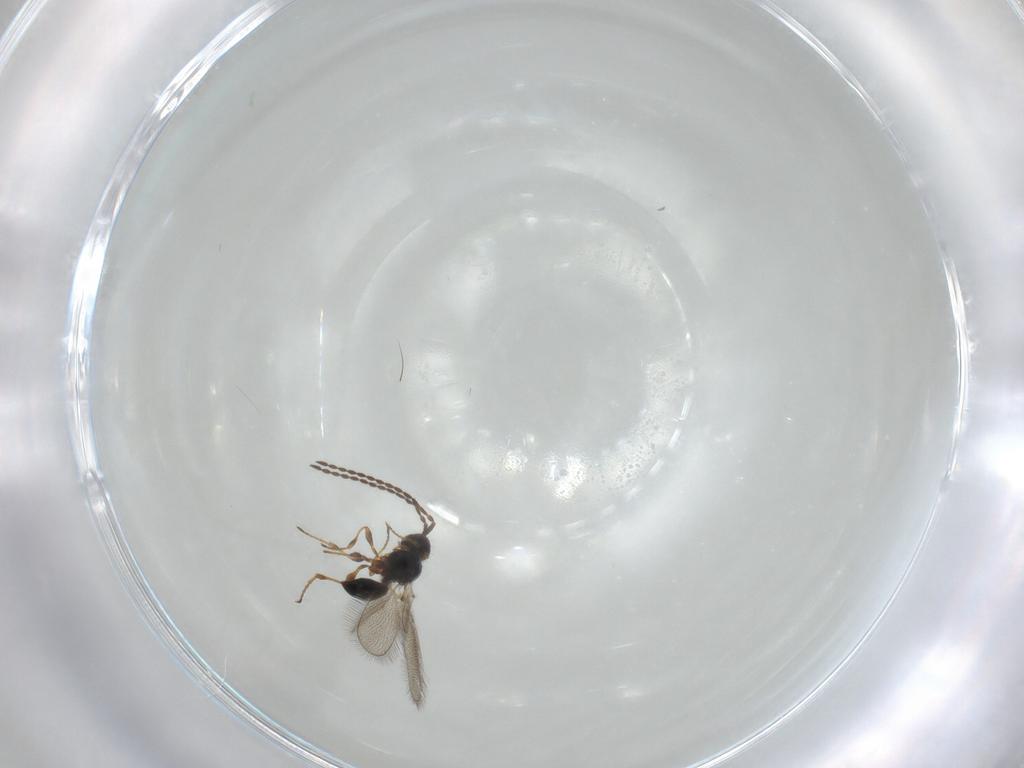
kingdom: Animalia
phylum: Arthropoda
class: Insecta
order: Hymenoptera
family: Diapriidae
